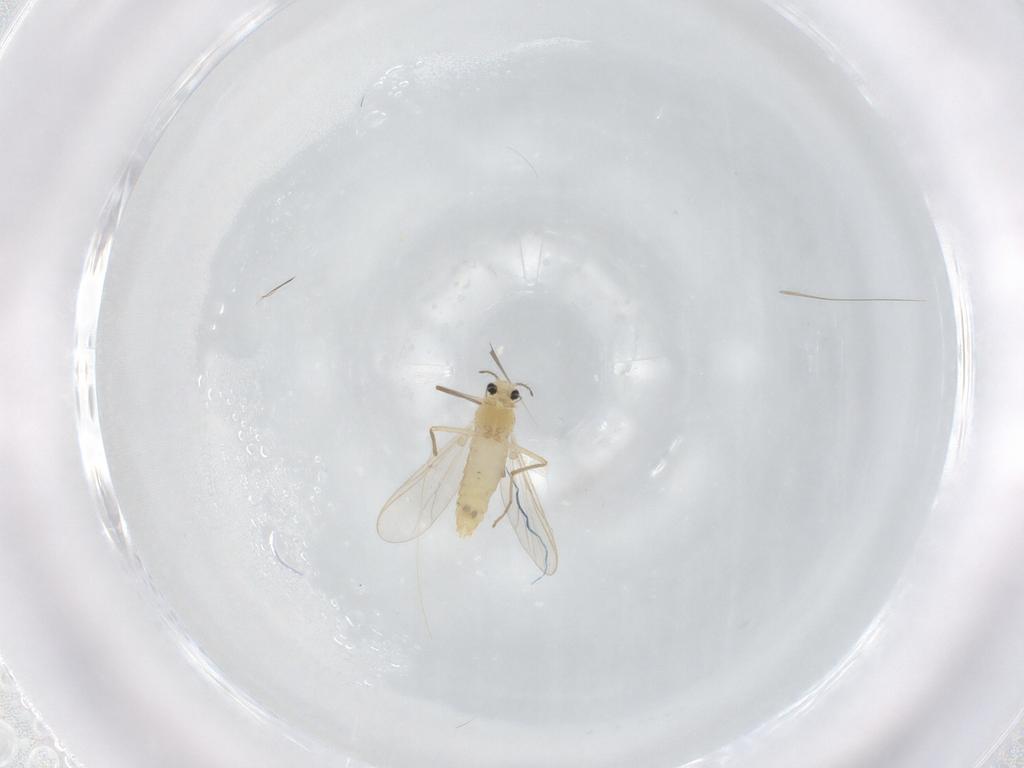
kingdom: Animalia
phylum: Arthropoda
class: Insecta
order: Diptera
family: Chironomidae
